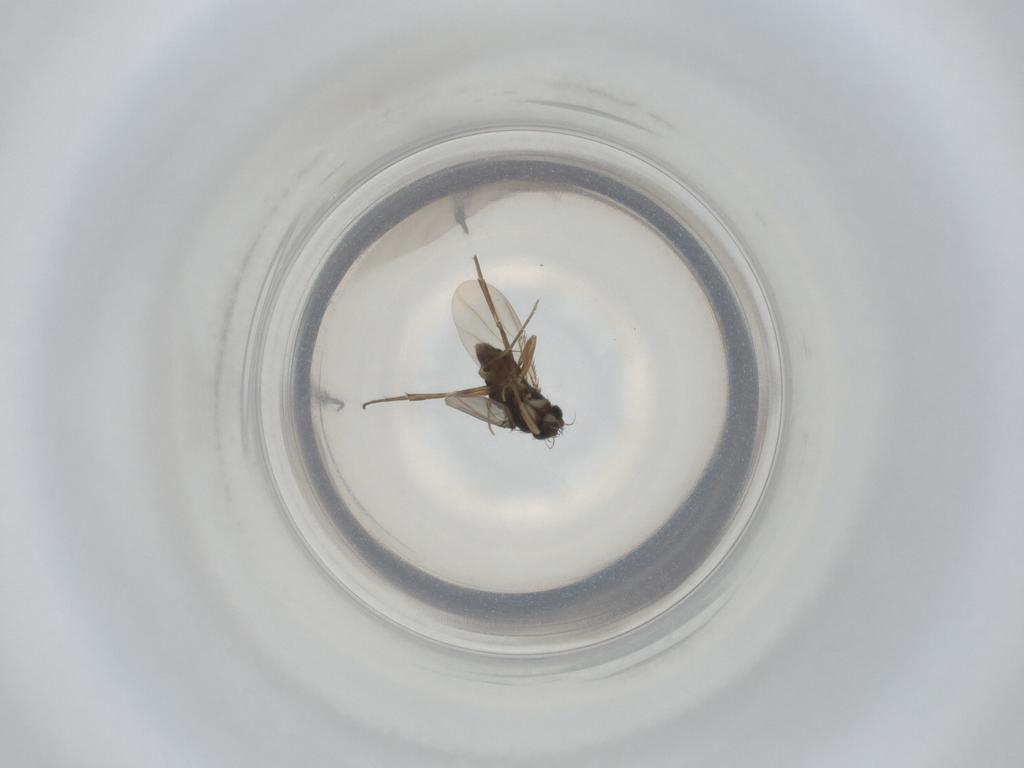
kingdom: Animalia
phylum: Arthropoda
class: Insecta
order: Diptera
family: Phoridae
